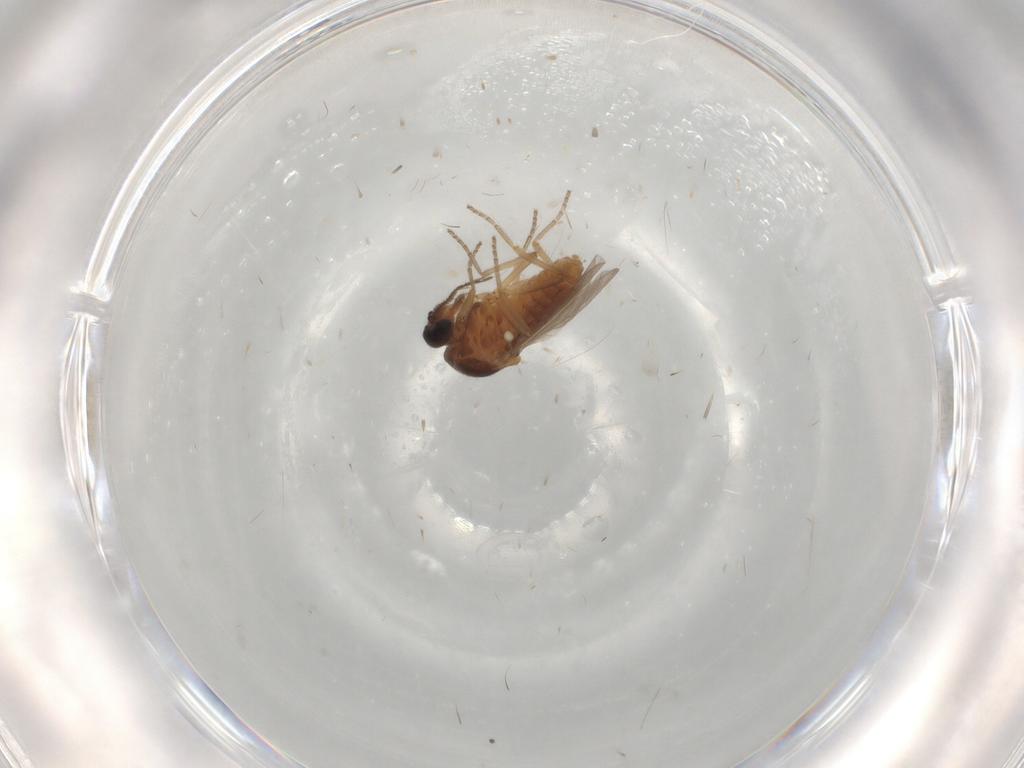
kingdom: Animalia
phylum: Arthropoda
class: Insecta
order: Diptera
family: Ceratopogonidae
